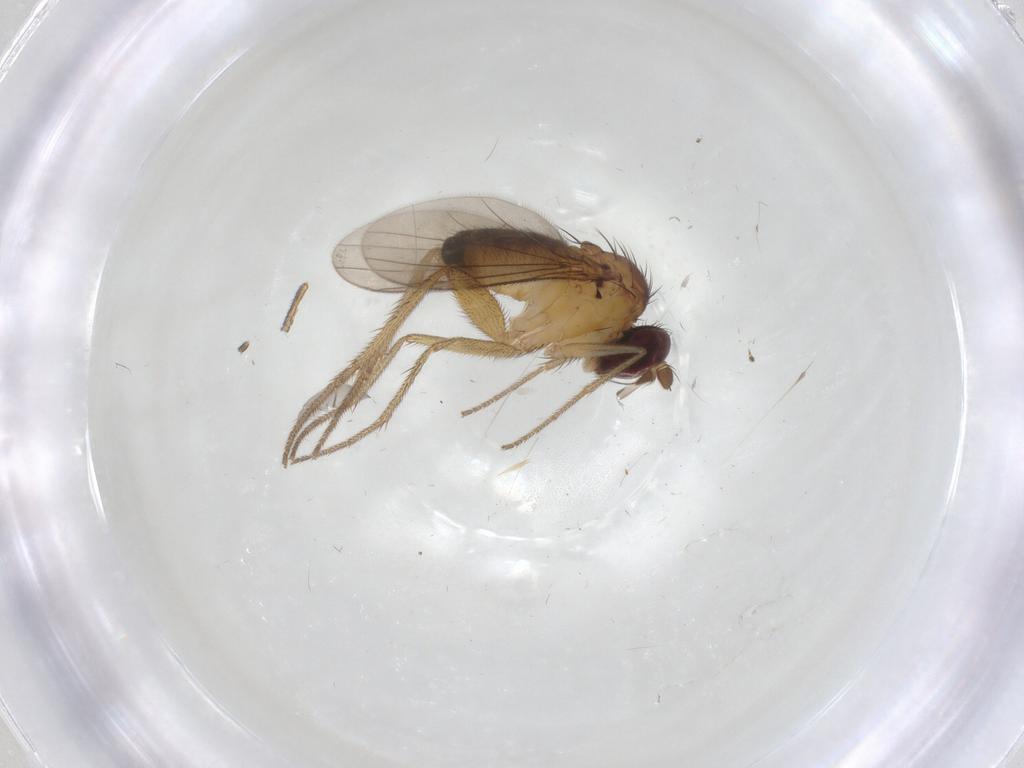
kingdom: Animalia
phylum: Arthropoda
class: Insecta
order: Diptera
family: Dolichopodidae
